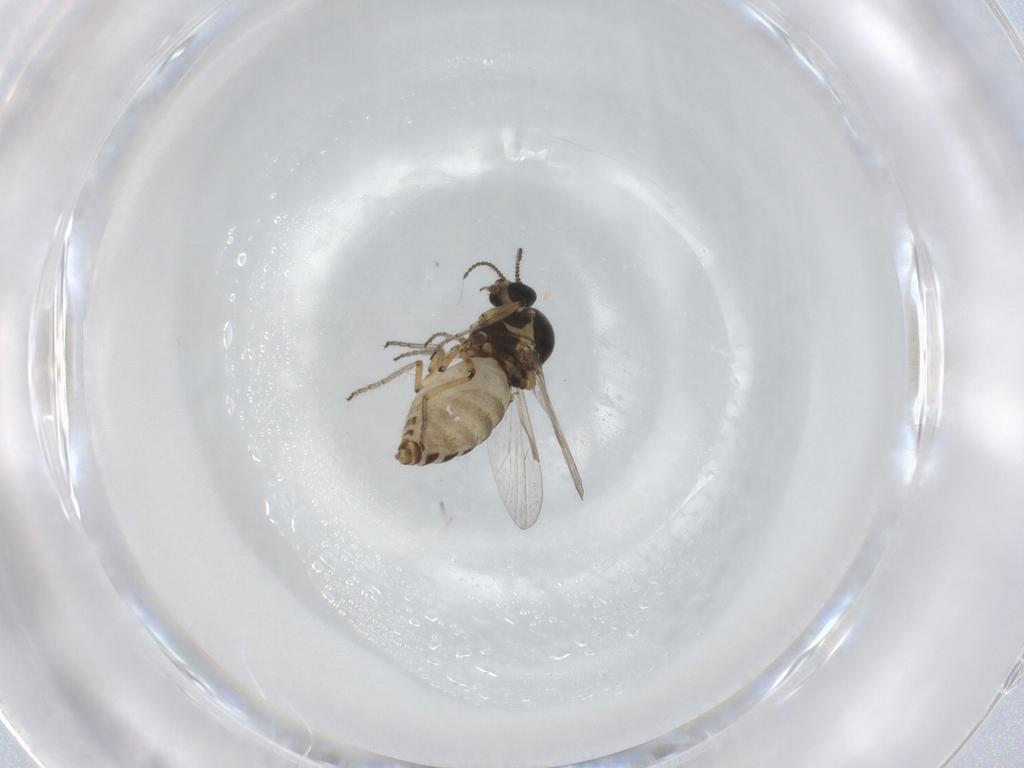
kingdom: Animalia
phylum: Arthropoda
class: Insecta
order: Diptera
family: Ceratopogonidae
